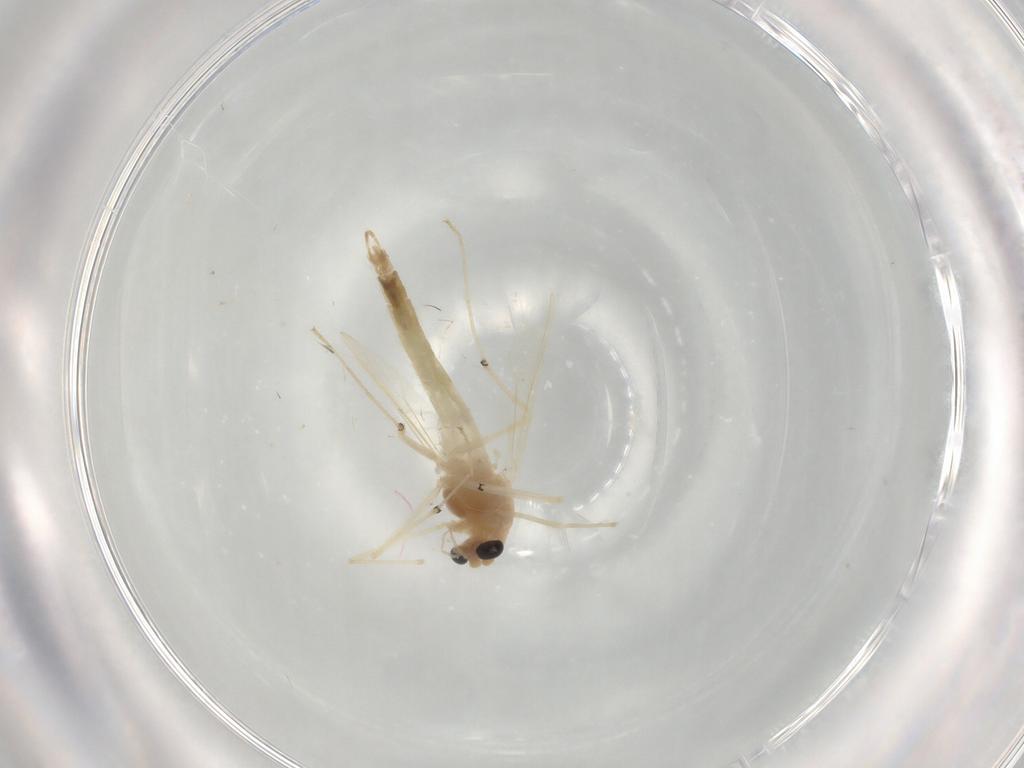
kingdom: Animalia
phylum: Arthropoda
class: Insecta
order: Diptera
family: Chironomidae
